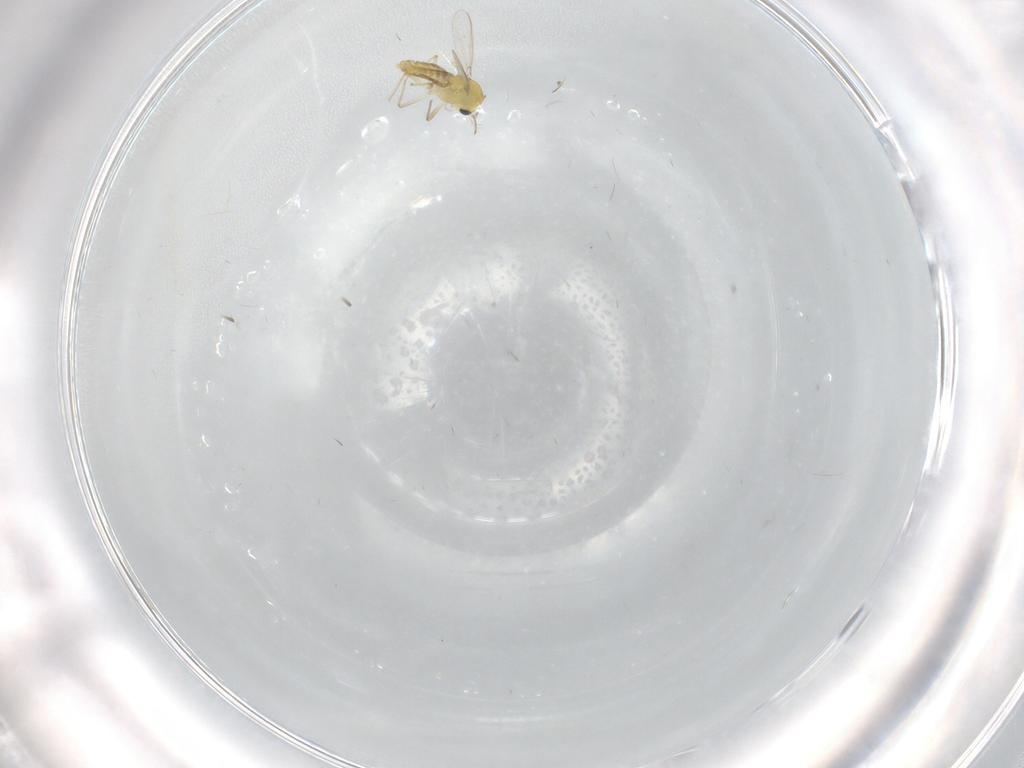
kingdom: Animalia
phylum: Arthropoda
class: Insecta
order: Diptera
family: Chironomidae
